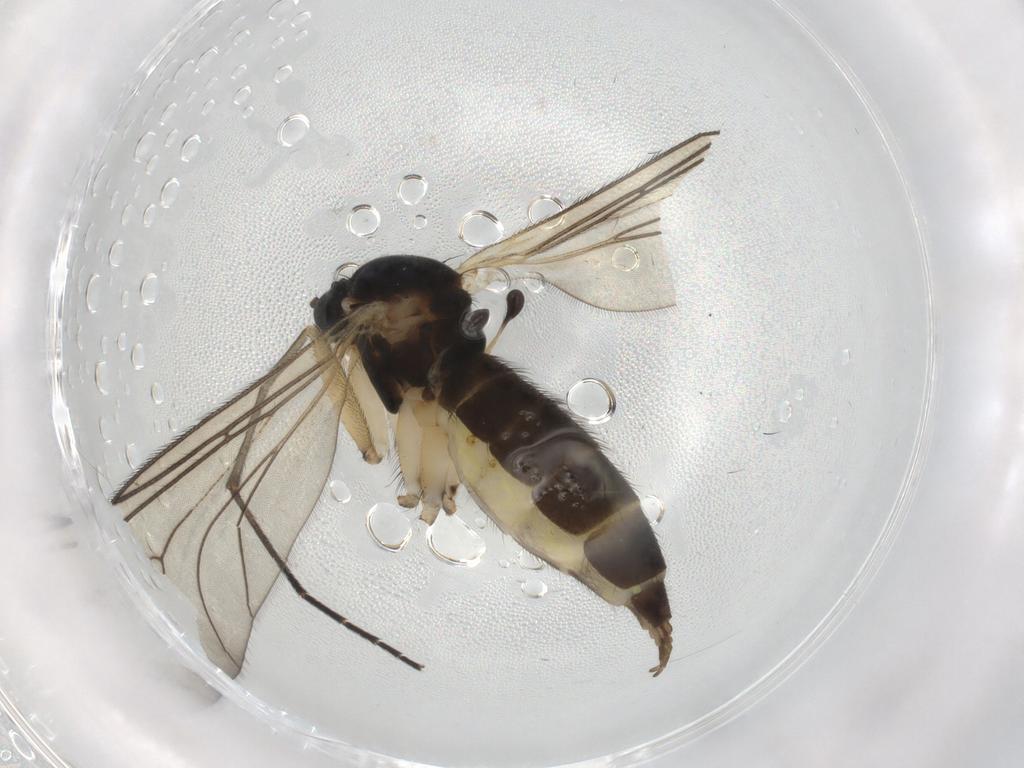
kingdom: Animalia
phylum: Arthropoda
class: Insecta
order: Diptera
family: Sciaridae
